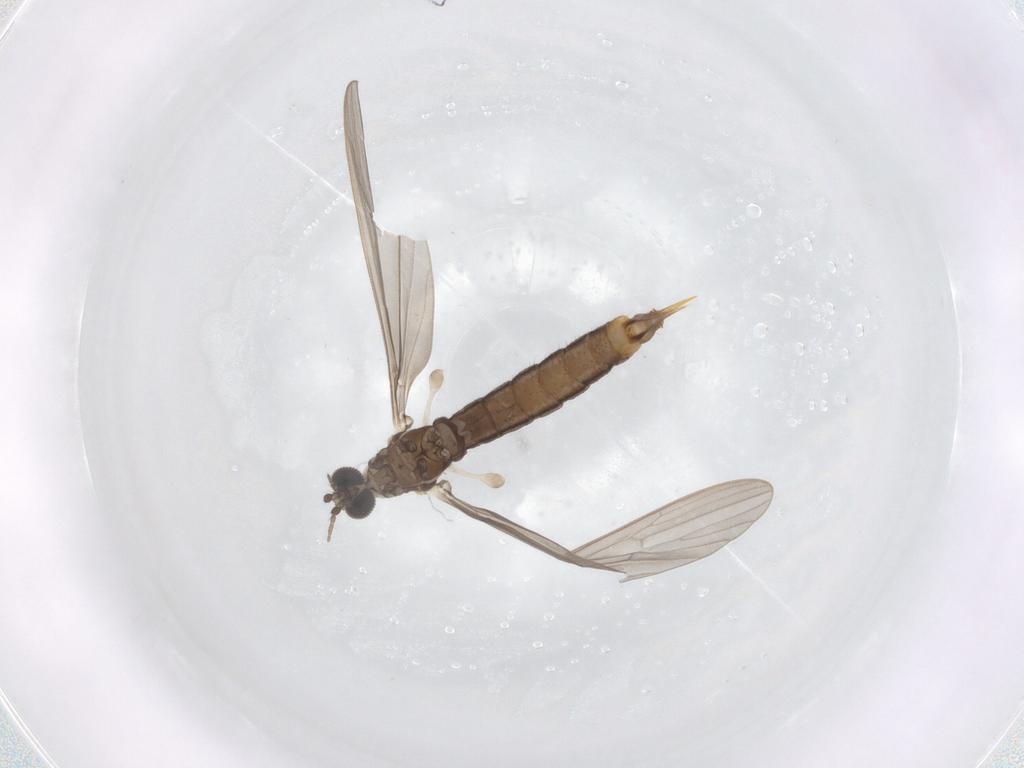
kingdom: Animalia
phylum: Arthropoda
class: Insecta
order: Diptera
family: Limoniidae
